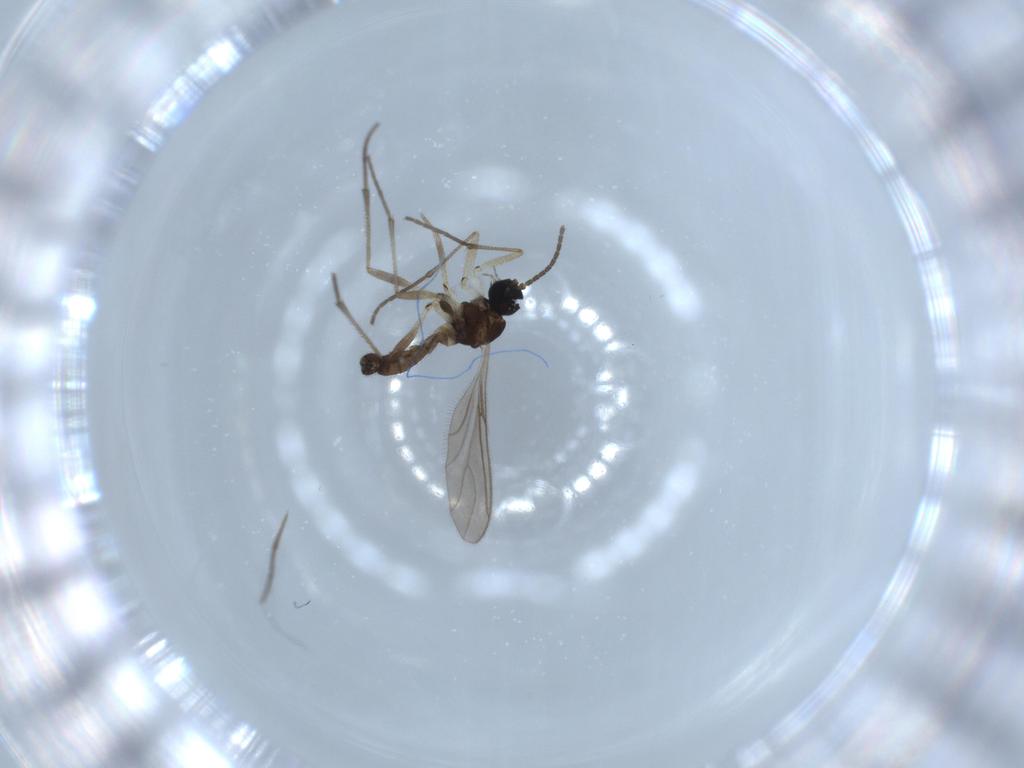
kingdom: Animalia
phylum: Arthropoda
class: Insecta
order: Diptera
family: Sciaridae
